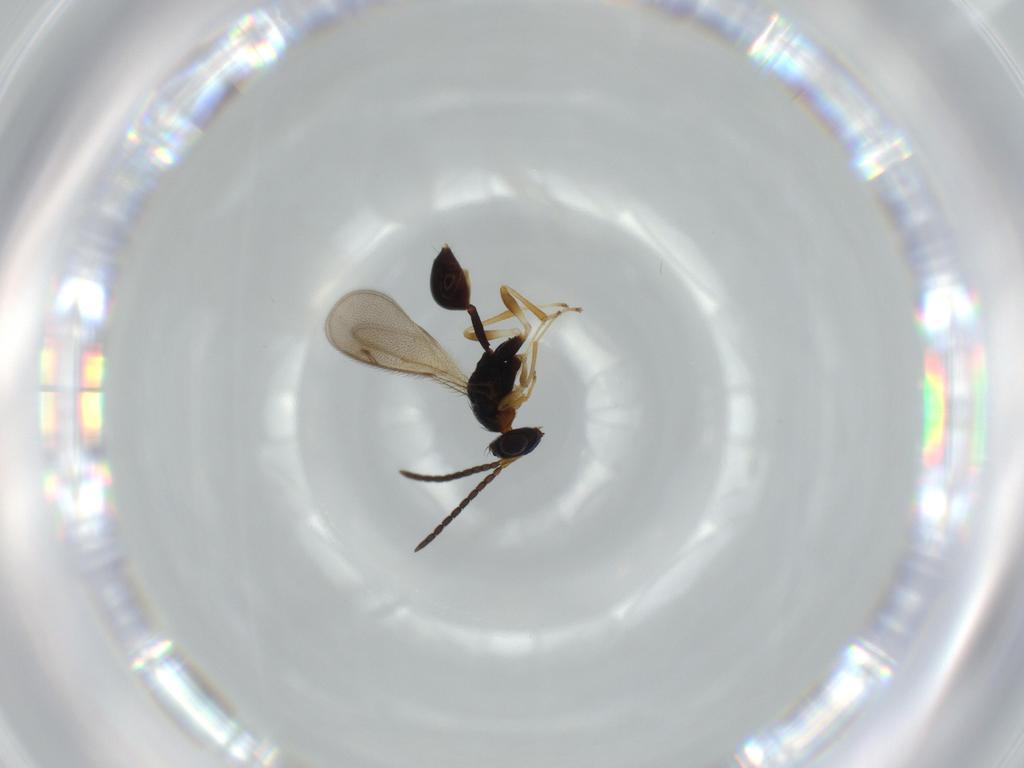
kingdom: Animalia
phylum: Arthropoda
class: Insecta
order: Hymenoptera
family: Diparidae
